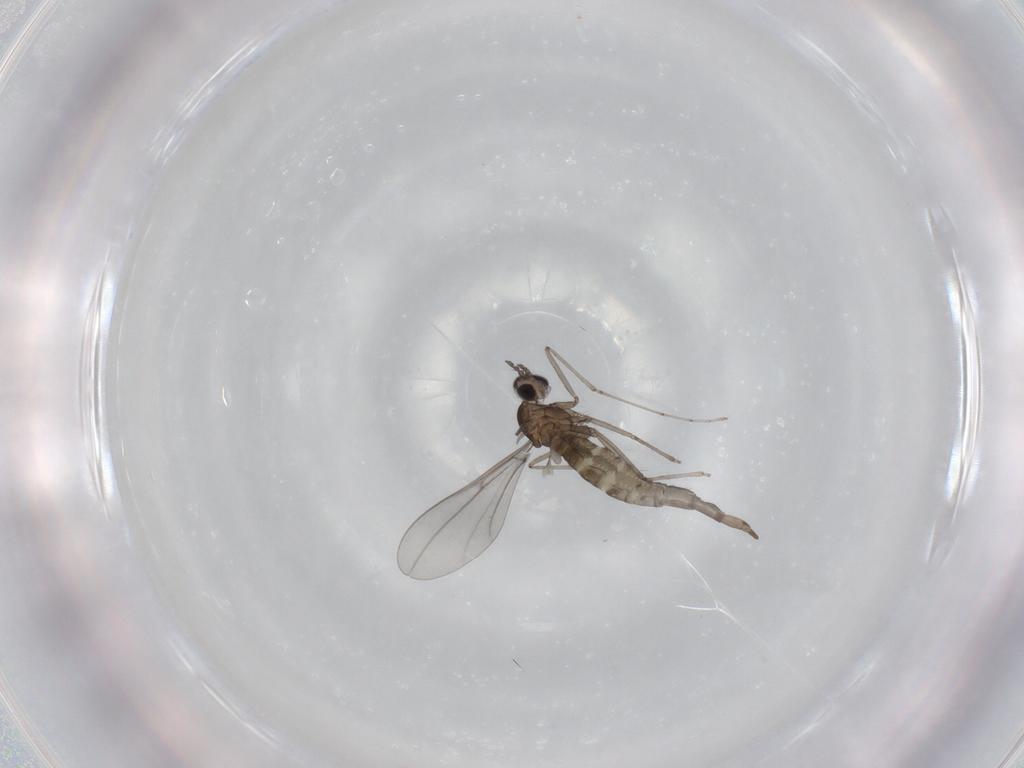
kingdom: Animalia
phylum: Arthropoda
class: Insecta
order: Diptera
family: Cecidomyiidae
